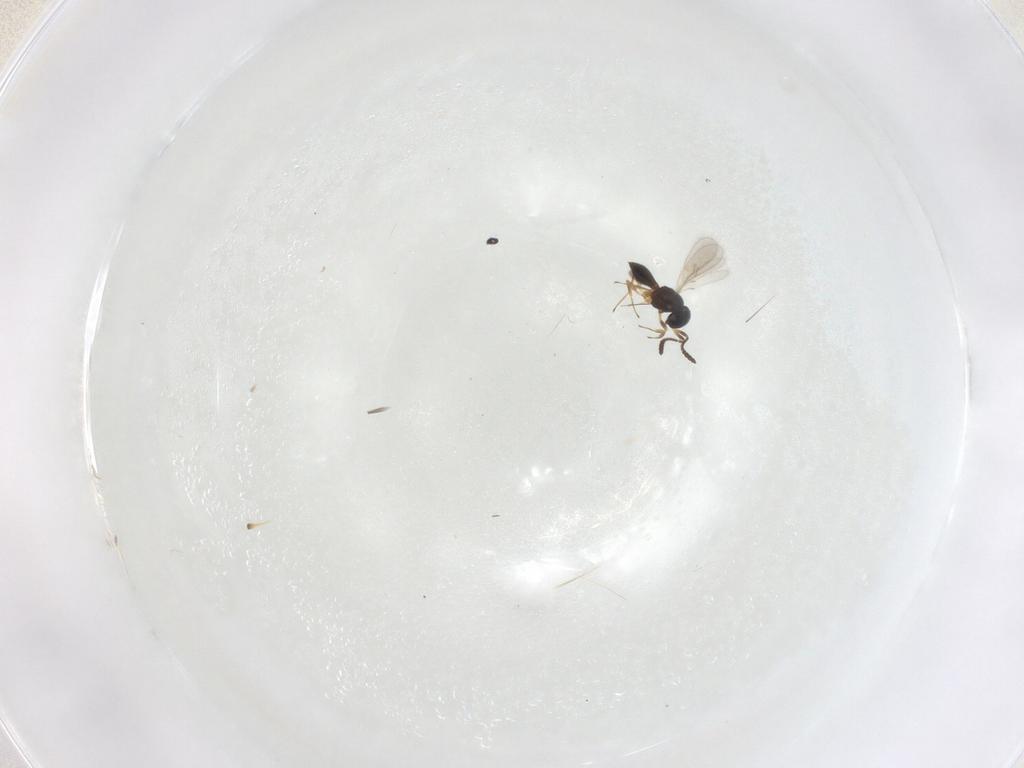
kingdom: Animalia
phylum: Arthropoda
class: Insecta
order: Hymenoptera
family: Scelionidae
